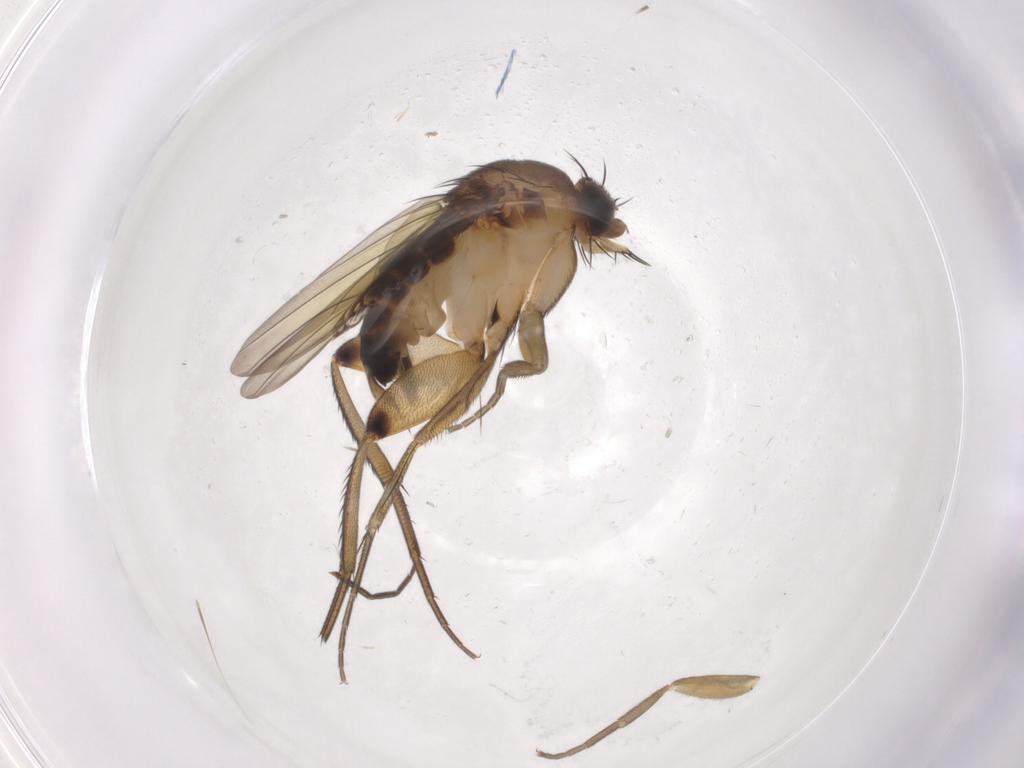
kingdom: Animalia
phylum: Arthropoda
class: Insecta
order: Diptera
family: Phoridae
